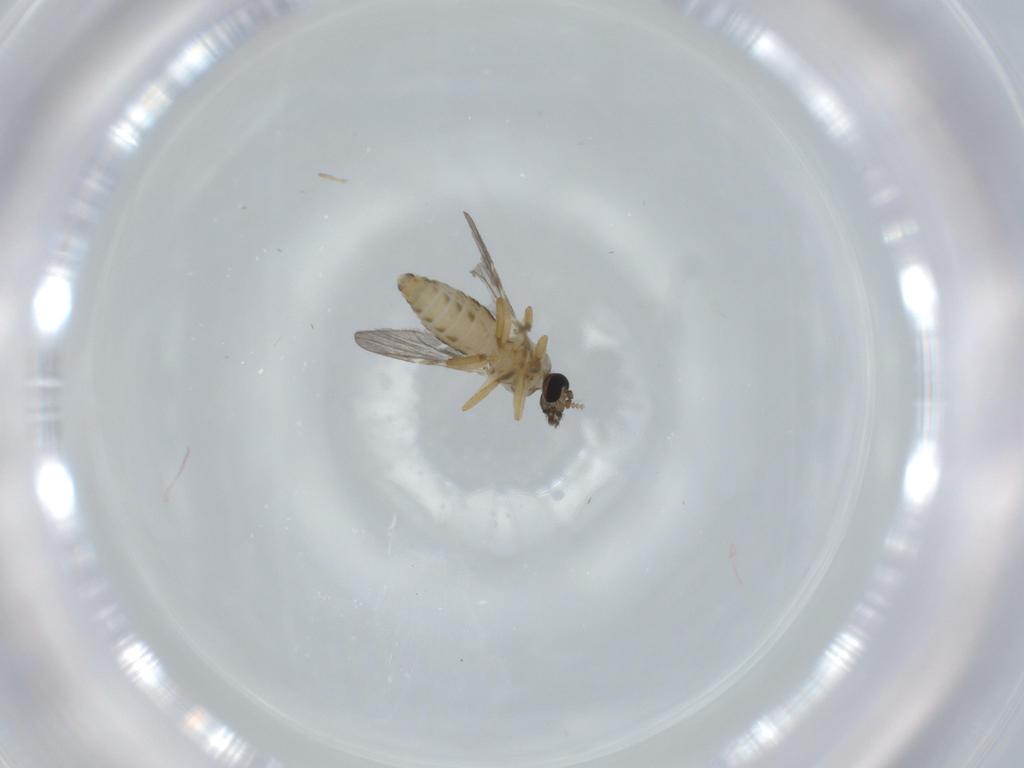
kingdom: Animalia
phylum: Arthropoda
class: Insecta
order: Diptera
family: Ceratopogonidae
